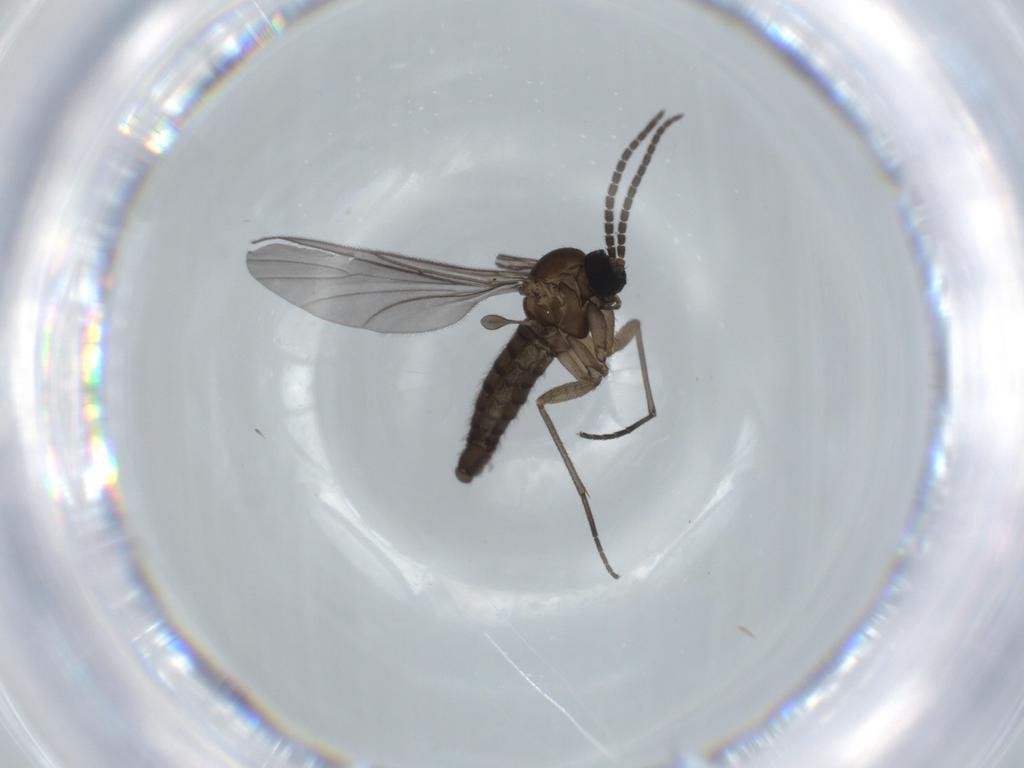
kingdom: Animalia
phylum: Arthropoda
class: Insecta
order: Diptera
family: Sciaridae
